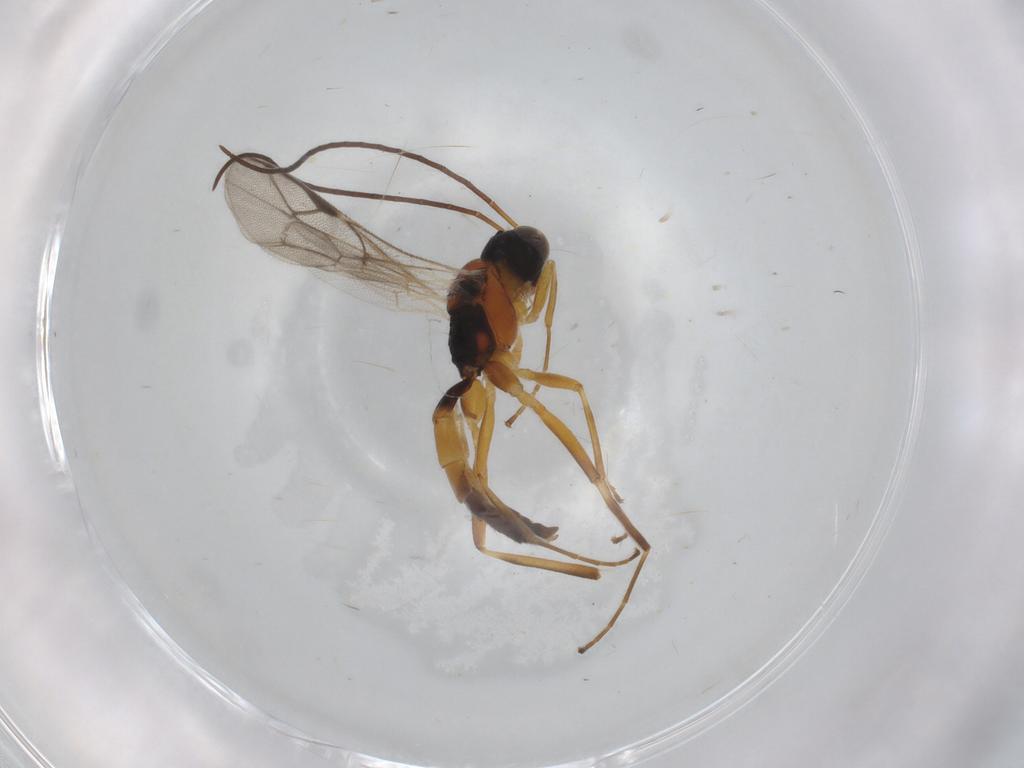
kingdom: Animalia
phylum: Arthropoda
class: Insecta
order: Hymenoptera
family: Ichneumonidae
